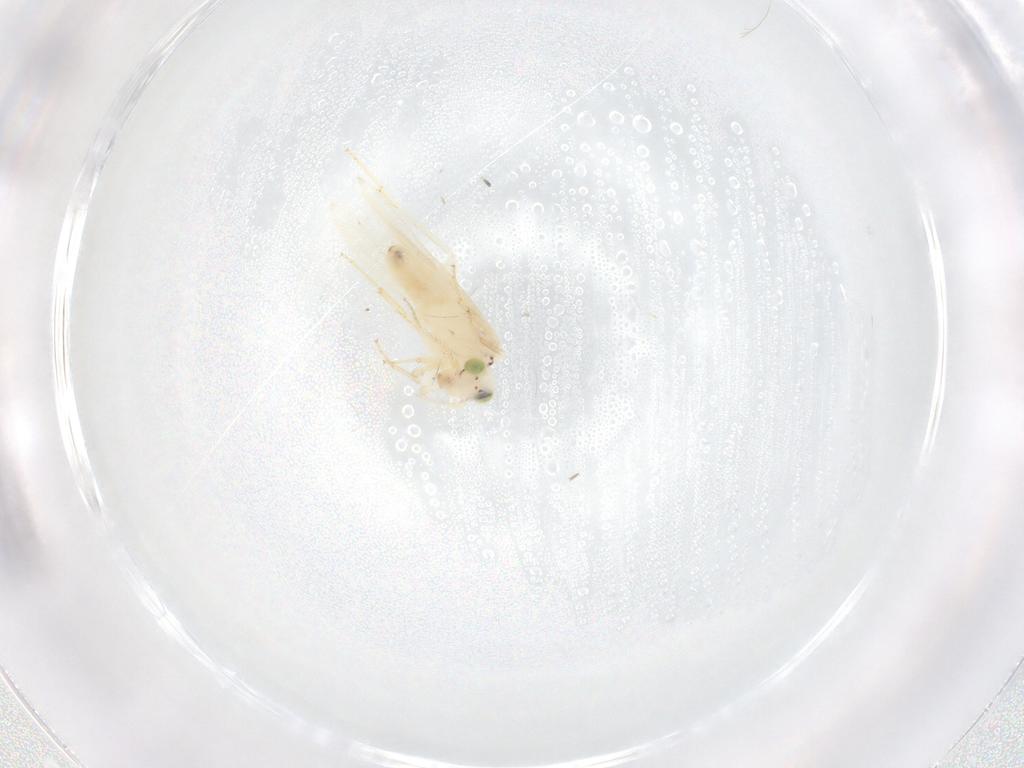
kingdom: Animalia
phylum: Arthropoda
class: Insecta
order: Psocodea
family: Lepidopsocidae
